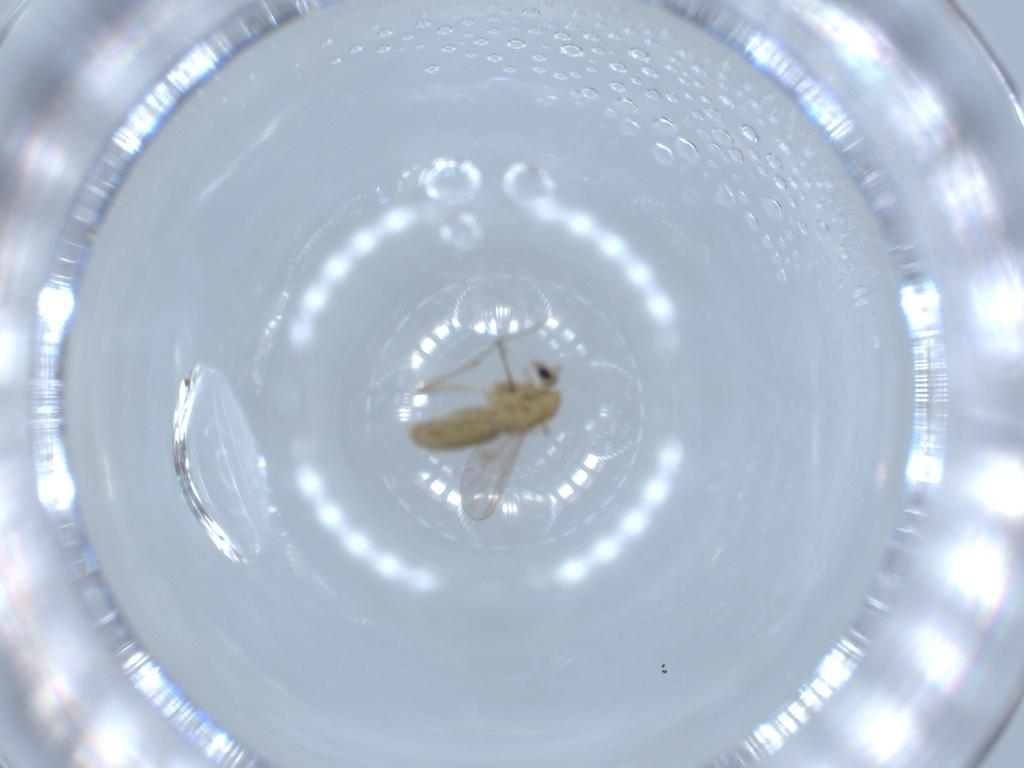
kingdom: Animalia
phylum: Arthropoda
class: Insecta
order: Diptera
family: Chironomidae
